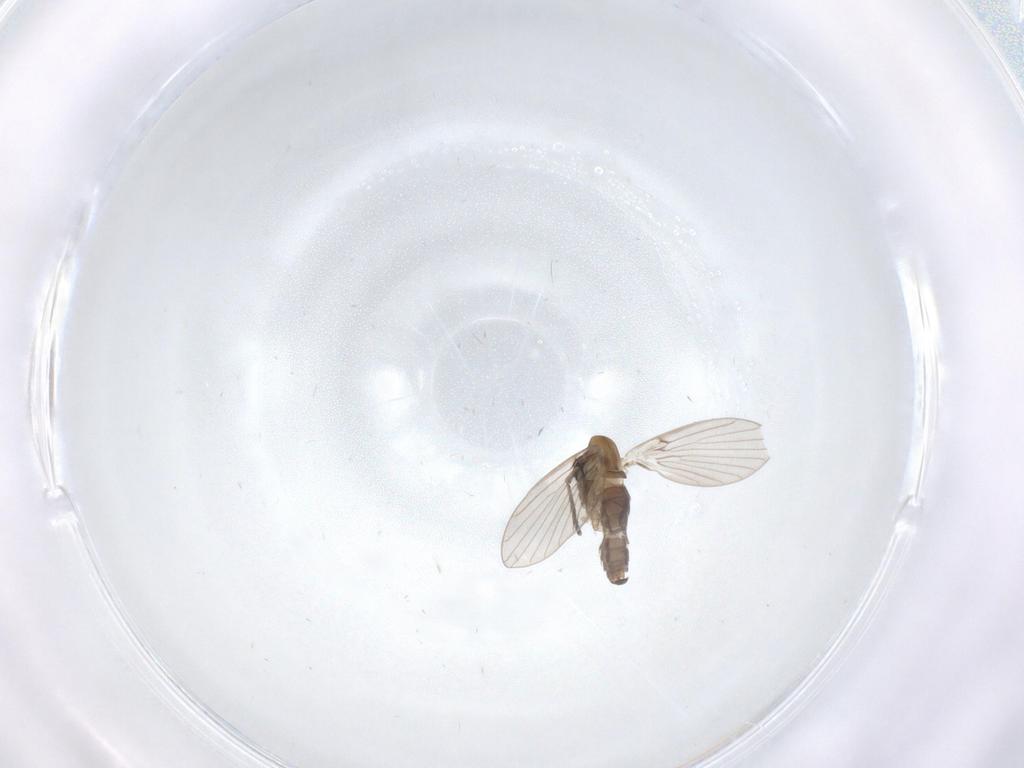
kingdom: Animalia
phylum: Arthropoda
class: Insecta
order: Diptera
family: Psychodidae
